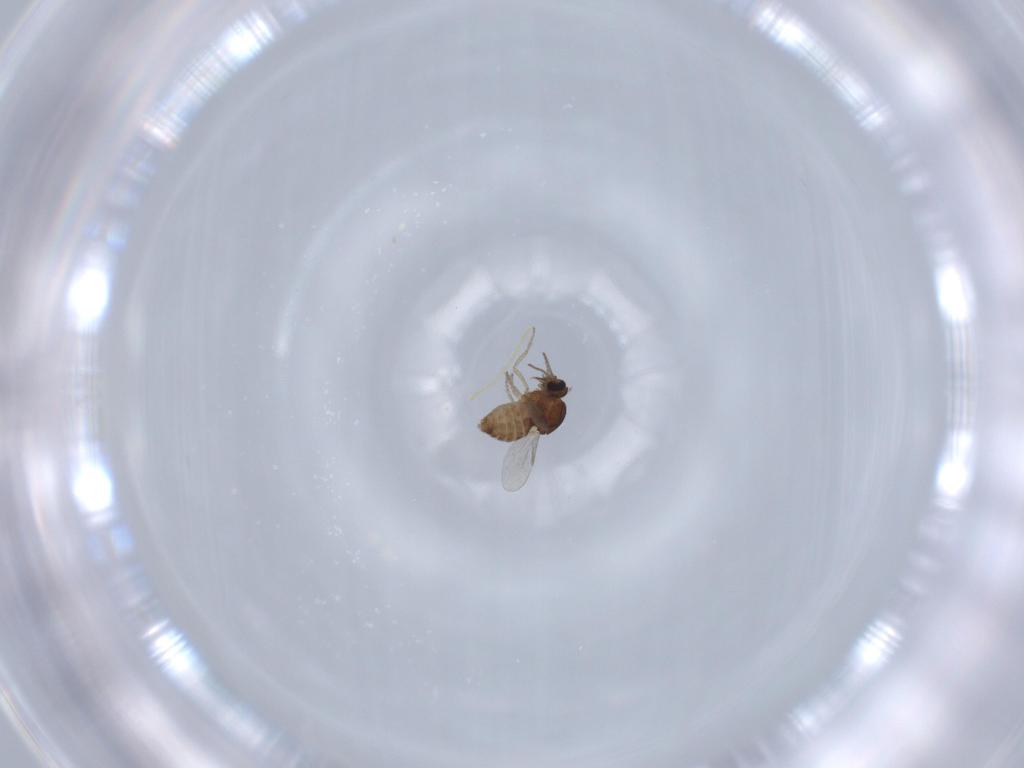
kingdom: Animalia
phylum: Arthropoda
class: Insecta
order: Diptera
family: Ceratopogonidae
